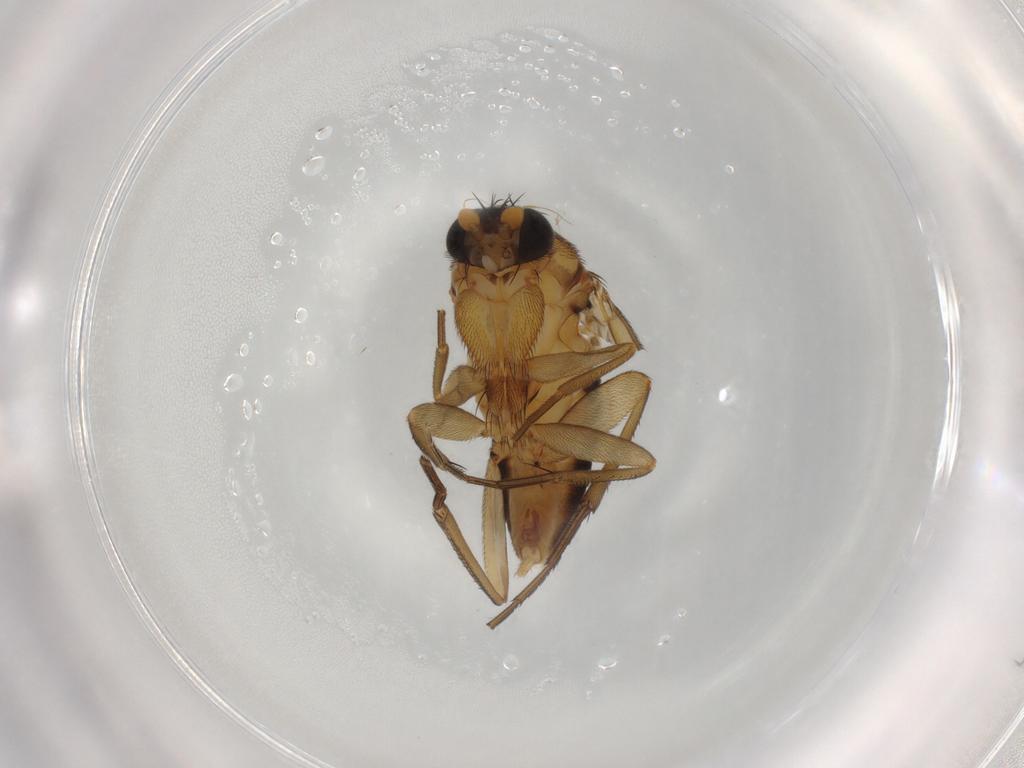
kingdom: Animalia
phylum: Arthropoda
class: Insecta
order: Diptera
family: Phoridae
